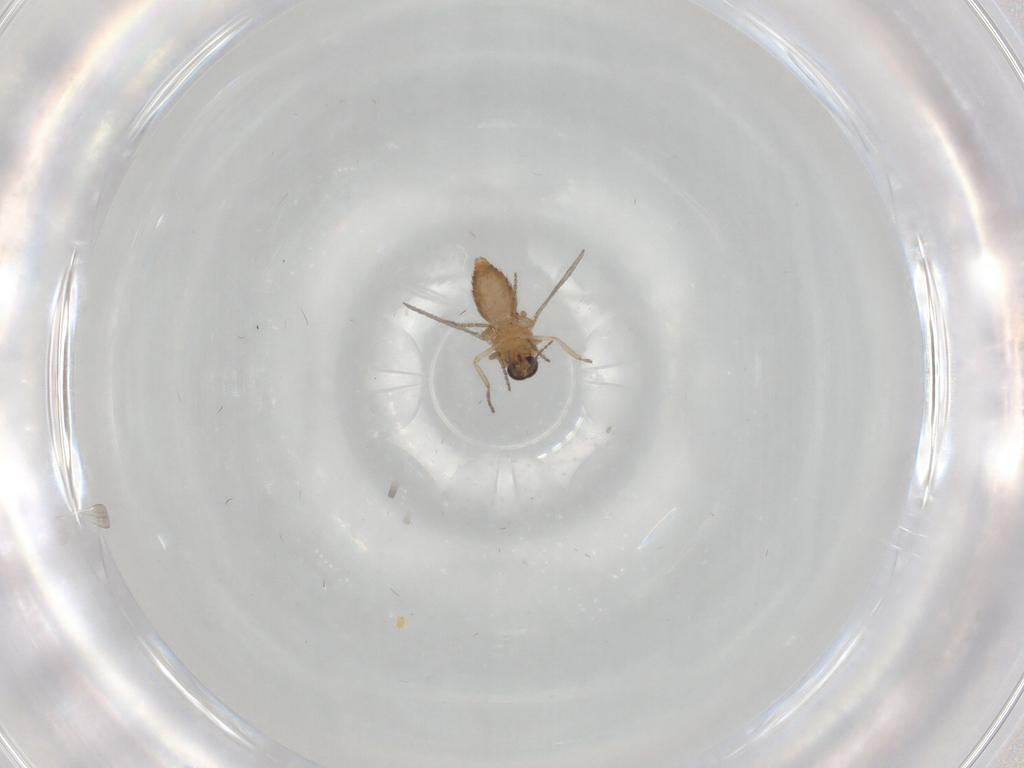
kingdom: Animalia
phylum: Arthropoda
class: Insecta
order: Diptera
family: Ceratopogonidae
